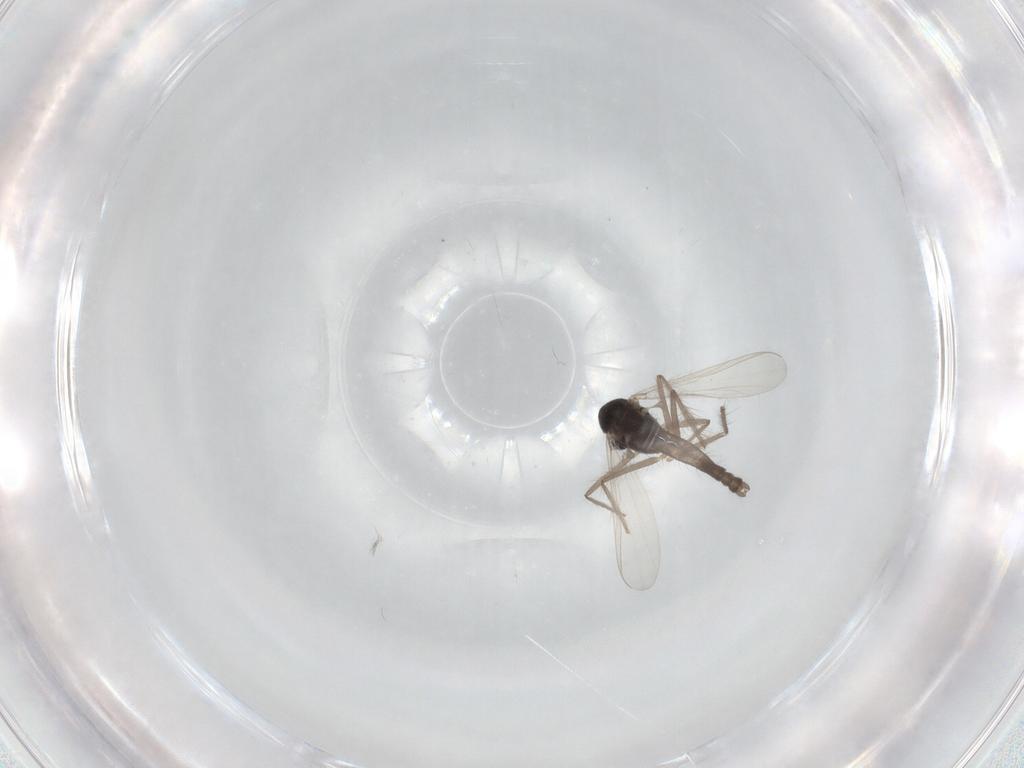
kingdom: Animalia
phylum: Arthropoda
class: Insecta
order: Diptera
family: Chironomidae
